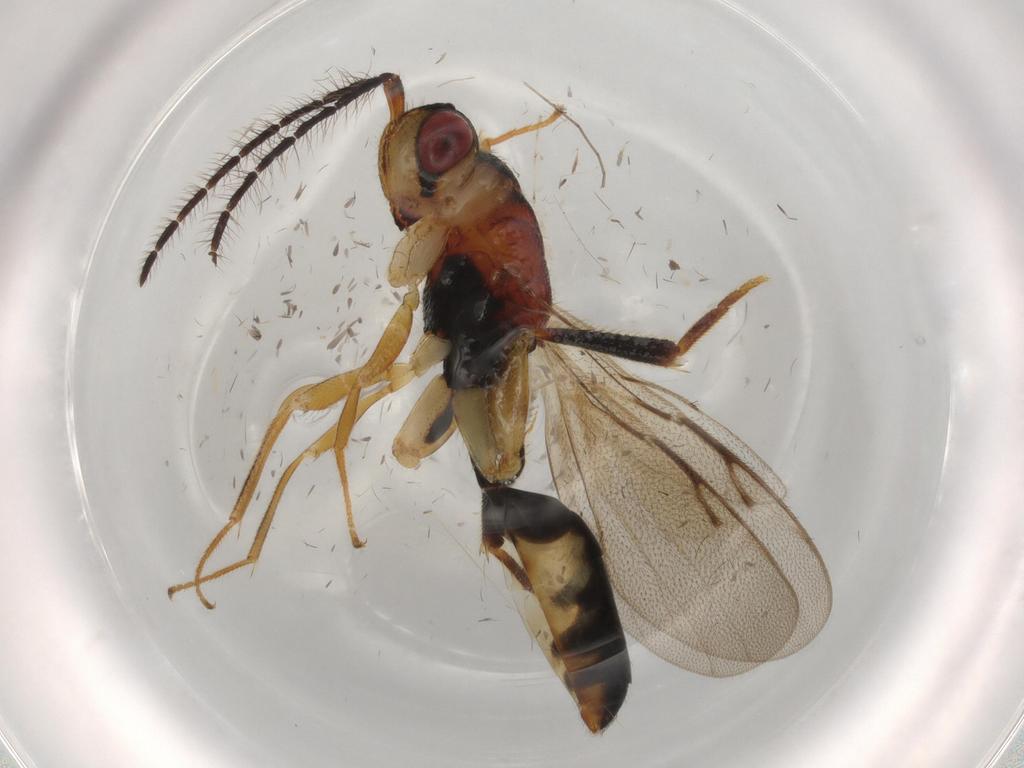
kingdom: Animalia
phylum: Arthropoda
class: Insecta
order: Hymenoptera
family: Eurytomidae
